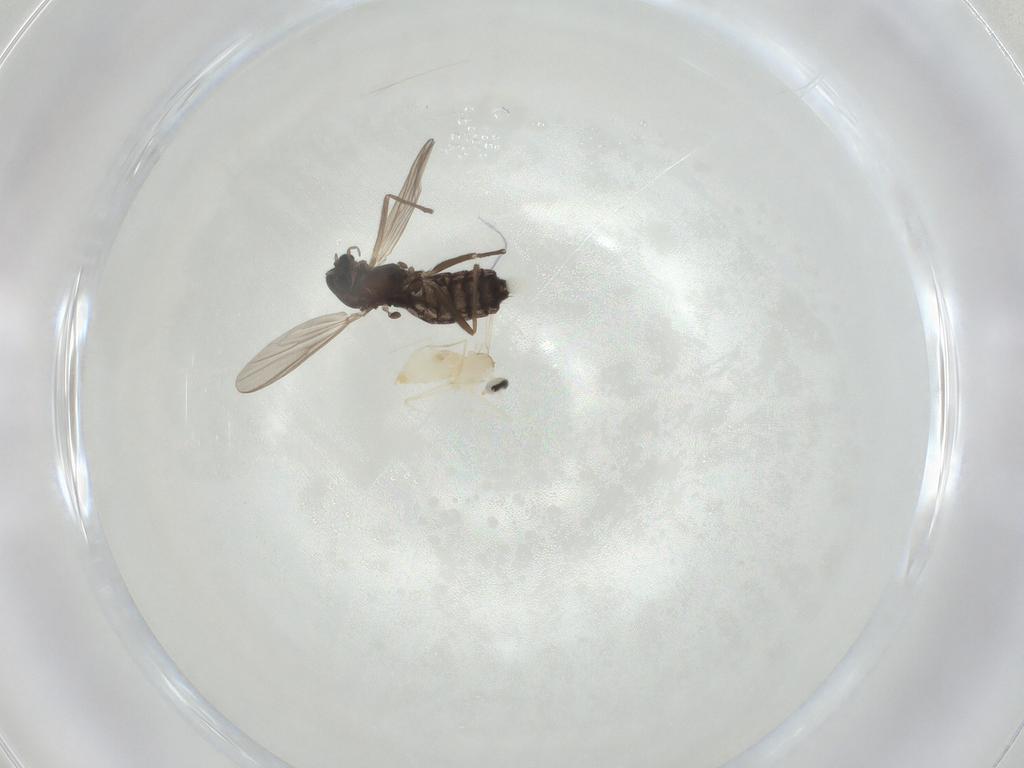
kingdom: Animalia
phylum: Arthropoda
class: Insecta
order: Diptera
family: Chironomidae
